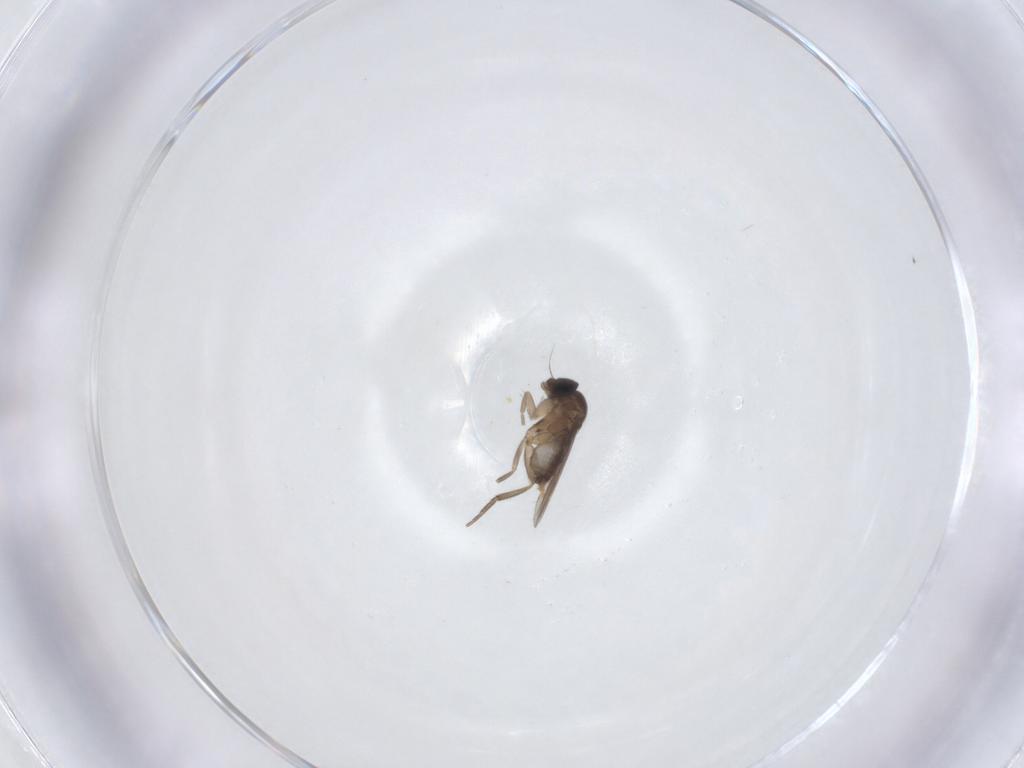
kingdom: Animalia
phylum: Arthropoda
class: Insecta
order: Diptera
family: Phoridae
